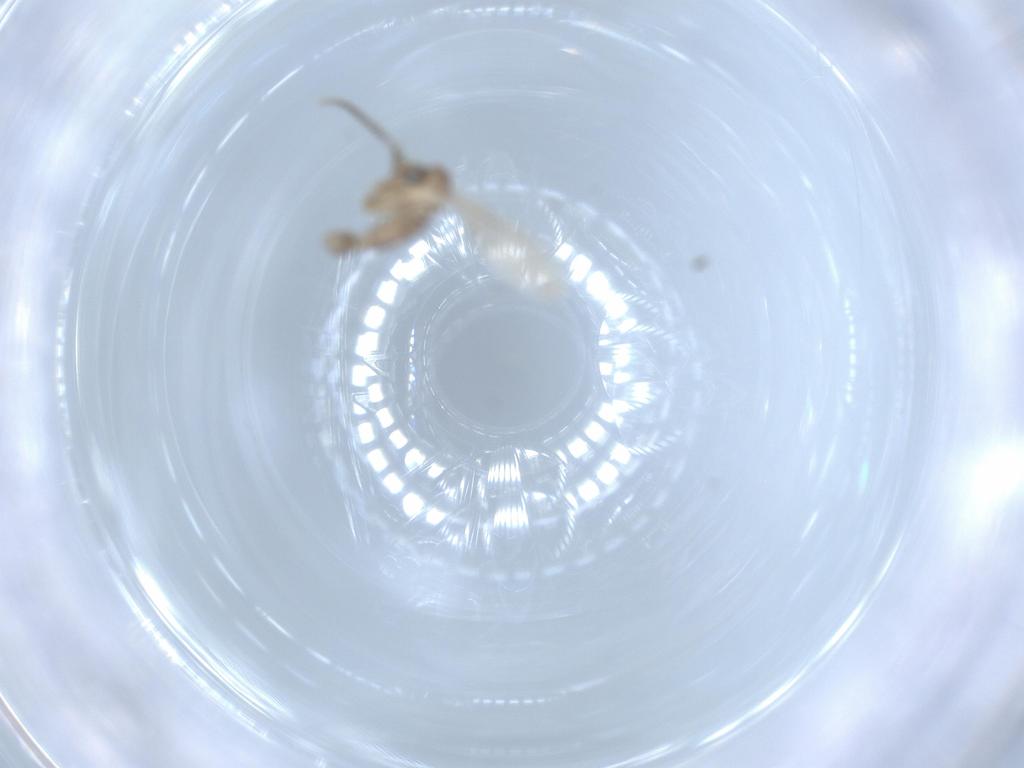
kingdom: Animalia
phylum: Arthropoda
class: Insecta
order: Diptera
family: Psychodidae
